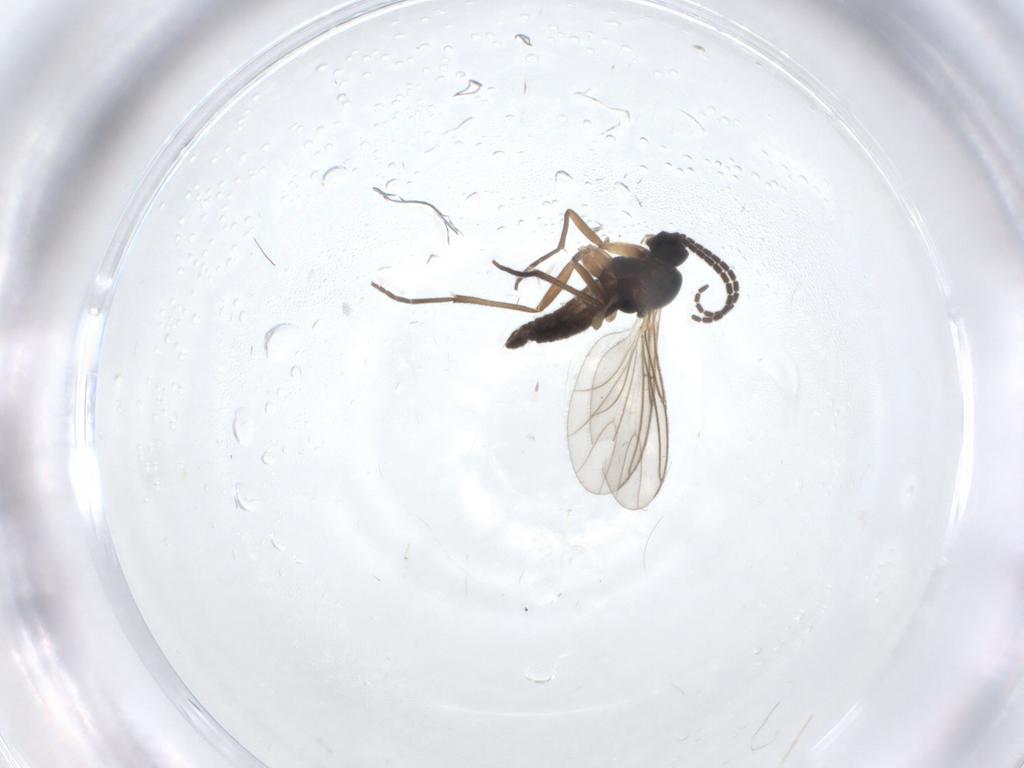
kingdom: Animalia
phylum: Arthropoda
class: Insecta
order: Diptera
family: Sciaridae
